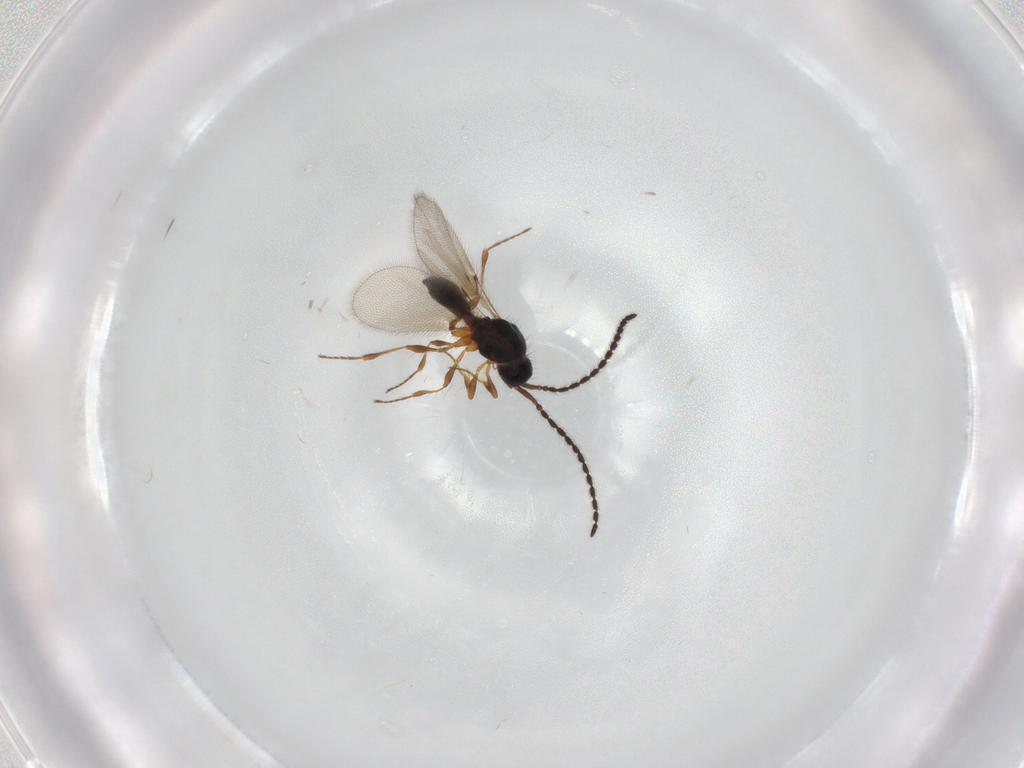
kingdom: Animalia
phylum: Arthropoda
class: Insecta
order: Hymenoptera
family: Diapriidae
